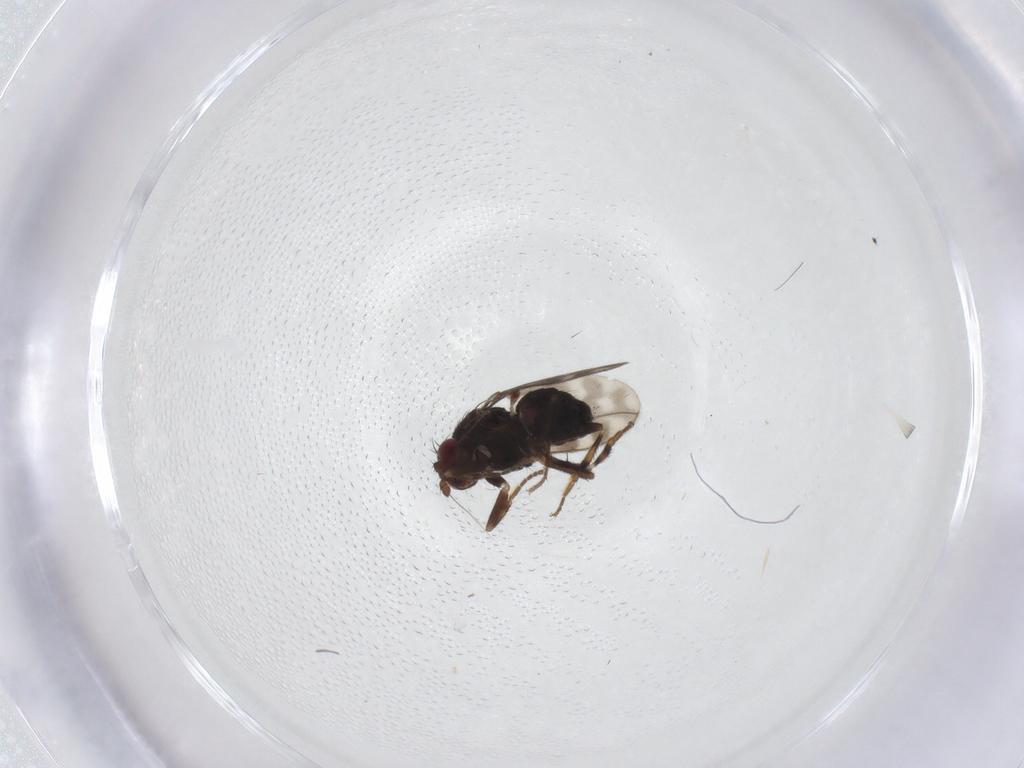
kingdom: Animalia
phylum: Arthropoda
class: Insecta
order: Diptera
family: Sphaeroceridae
